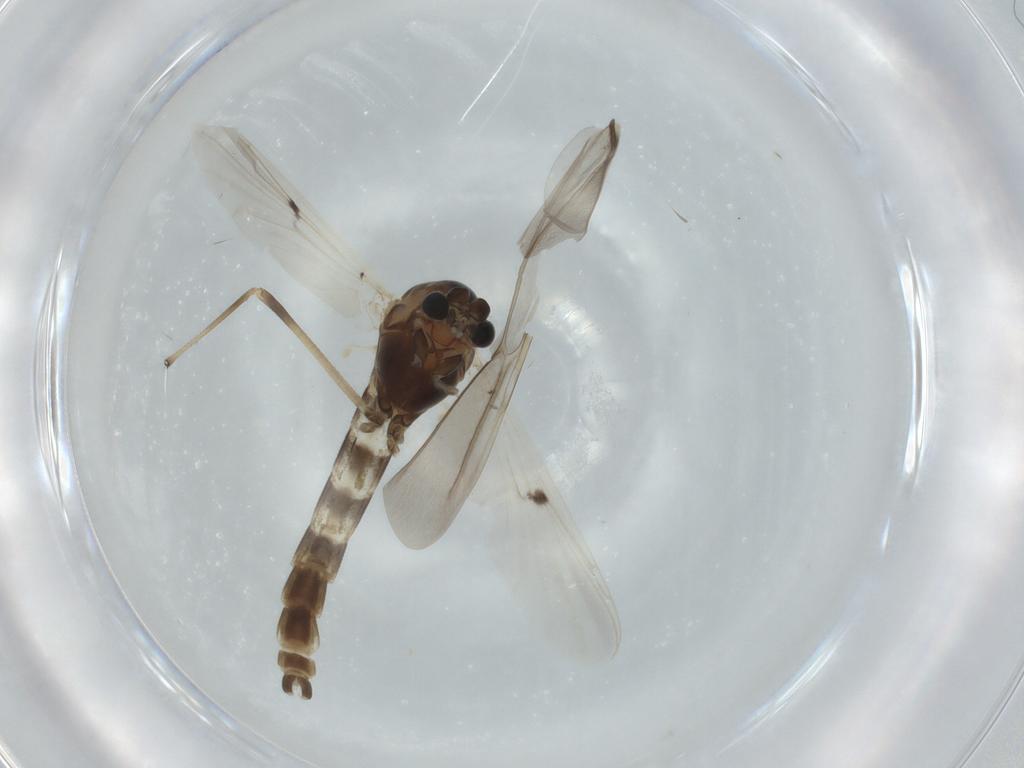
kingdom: Animalia
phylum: Arthropoda
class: Insecta
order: Diptera
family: Chironomidae
